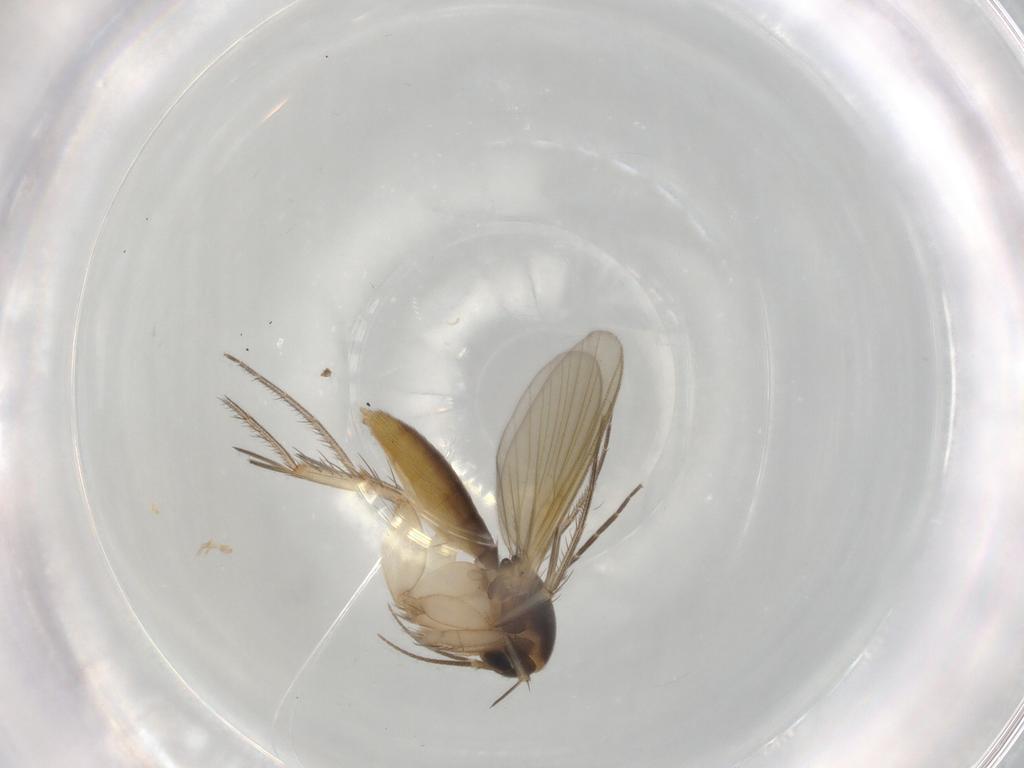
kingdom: Animalia
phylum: Arthropoda
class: Insecta
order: Diptera
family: Mycetophilidae
